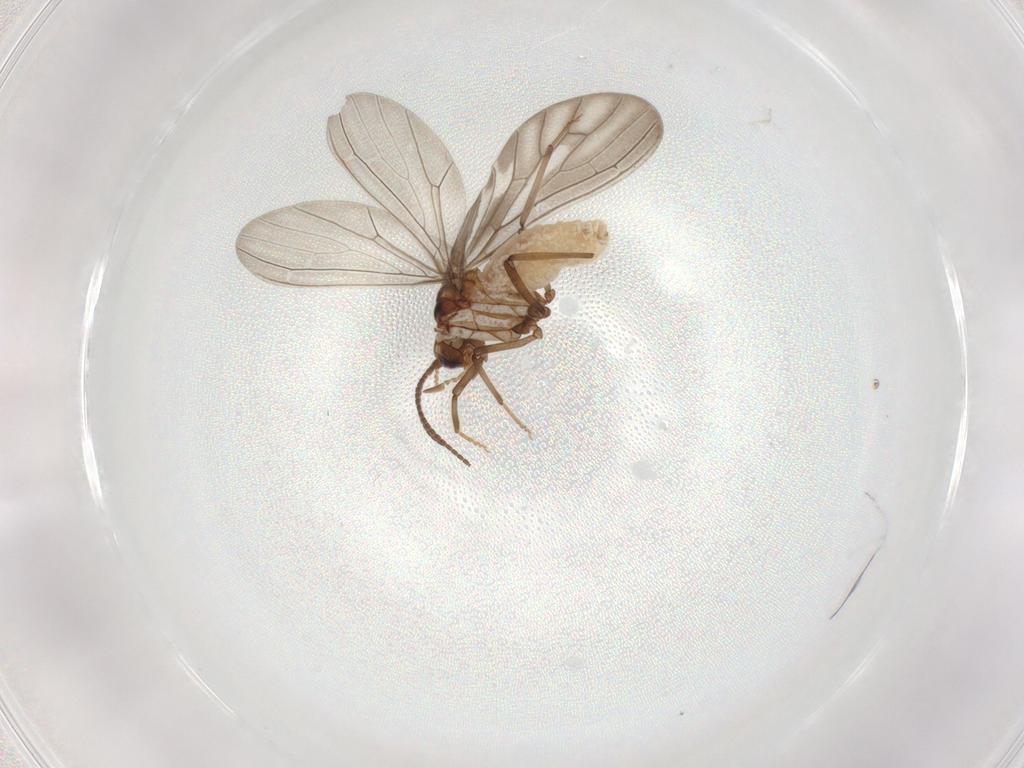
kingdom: Animalia
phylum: Arthropoda
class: Insecta
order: Neuroptera
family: Coniopterygidae
